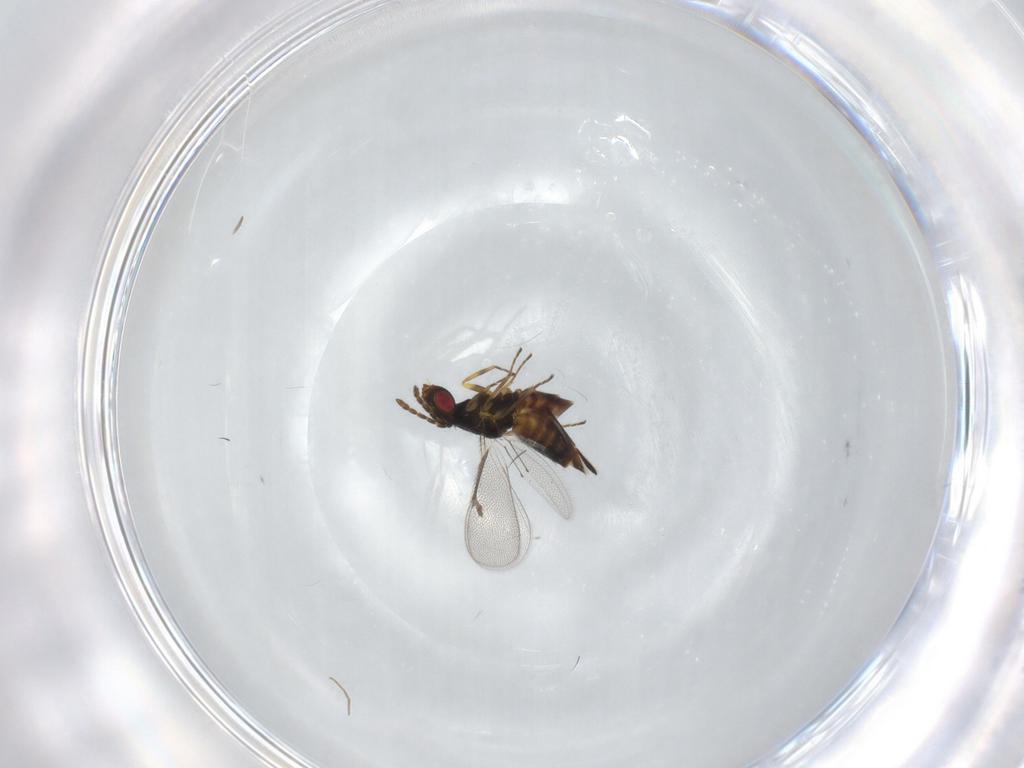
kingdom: Animalia
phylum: Arthropoda
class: Insecta
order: Hymenoptera
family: Eulophidae
